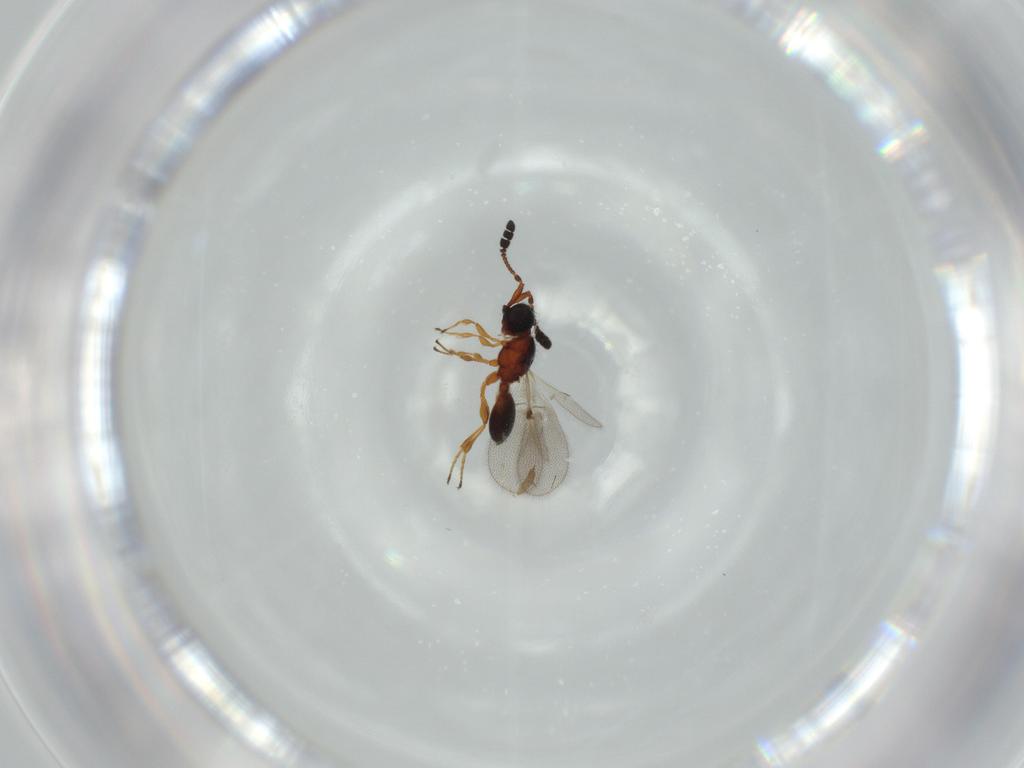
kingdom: Animalia
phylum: Arthropoda
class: Insecta
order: Hymenoptera
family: Diapriidae
